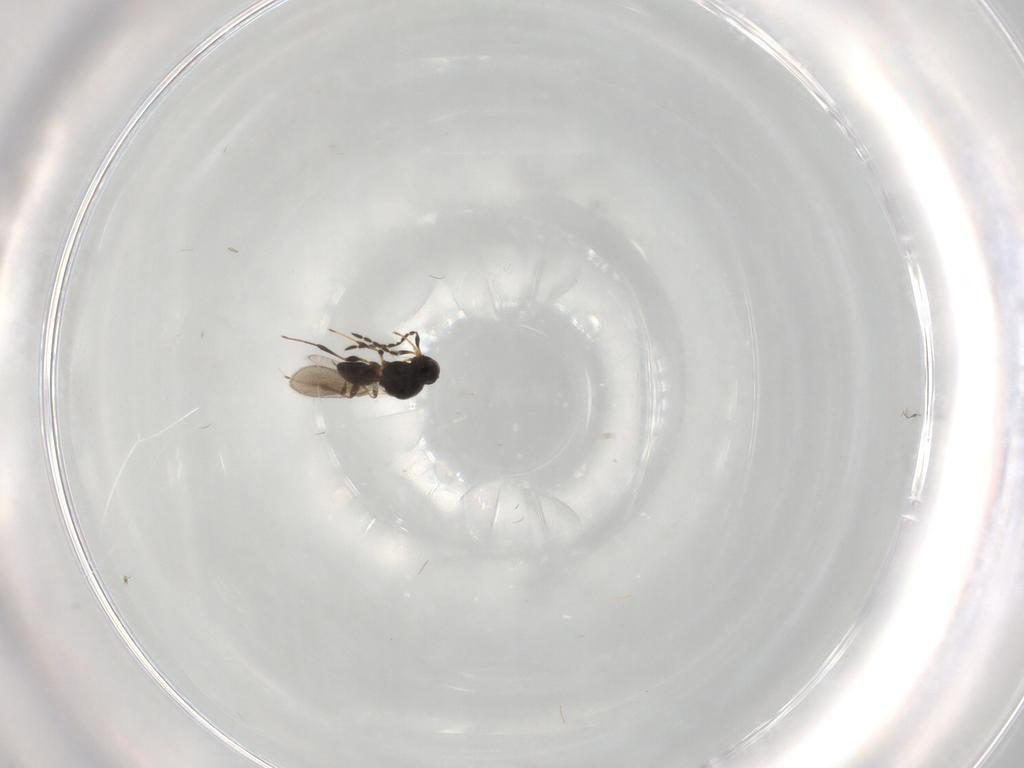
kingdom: Animalia
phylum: Arthropoda
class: Insecta
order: Hymenoptera
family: Platygastridae
